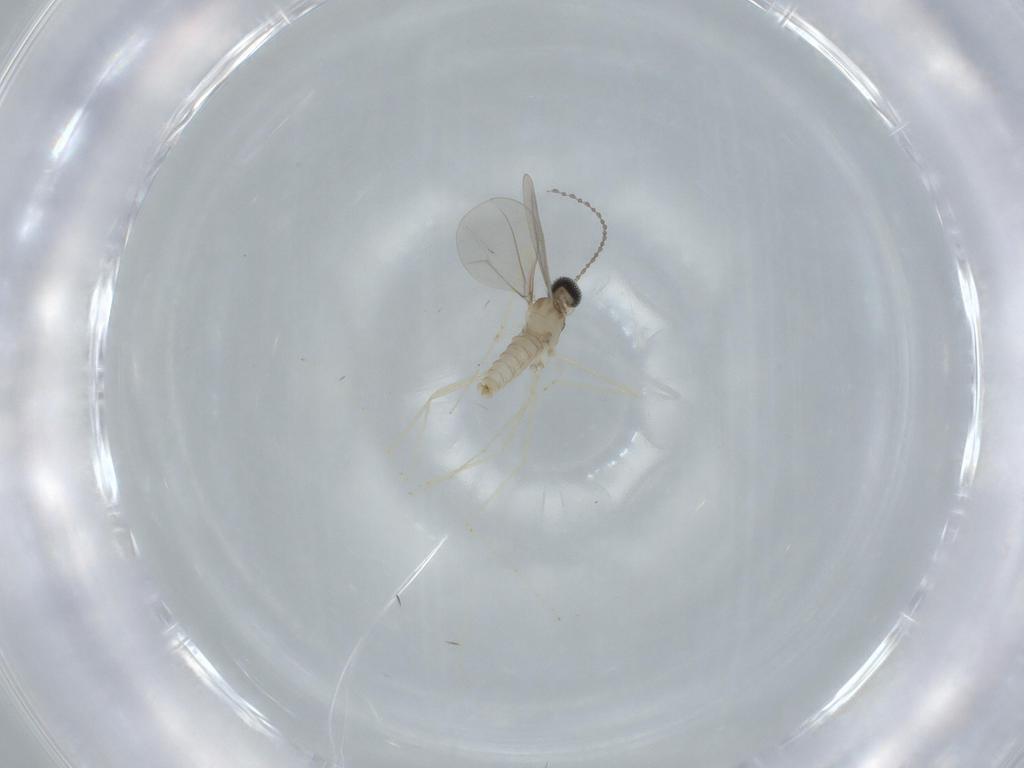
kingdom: Animalia
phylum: Arthropoda
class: Insecta
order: Diptera
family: Cecidomyiidae
